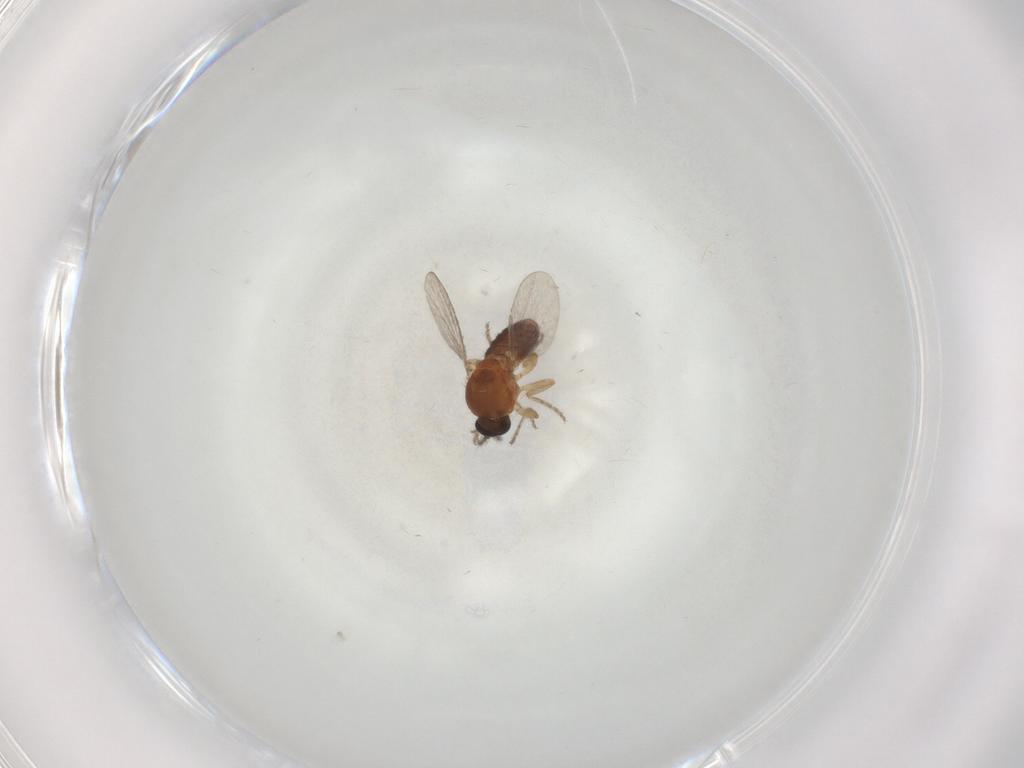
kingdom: Animalia
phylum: Arthropoda
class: Insecta
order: Diptera
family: Ceratopogonidae
